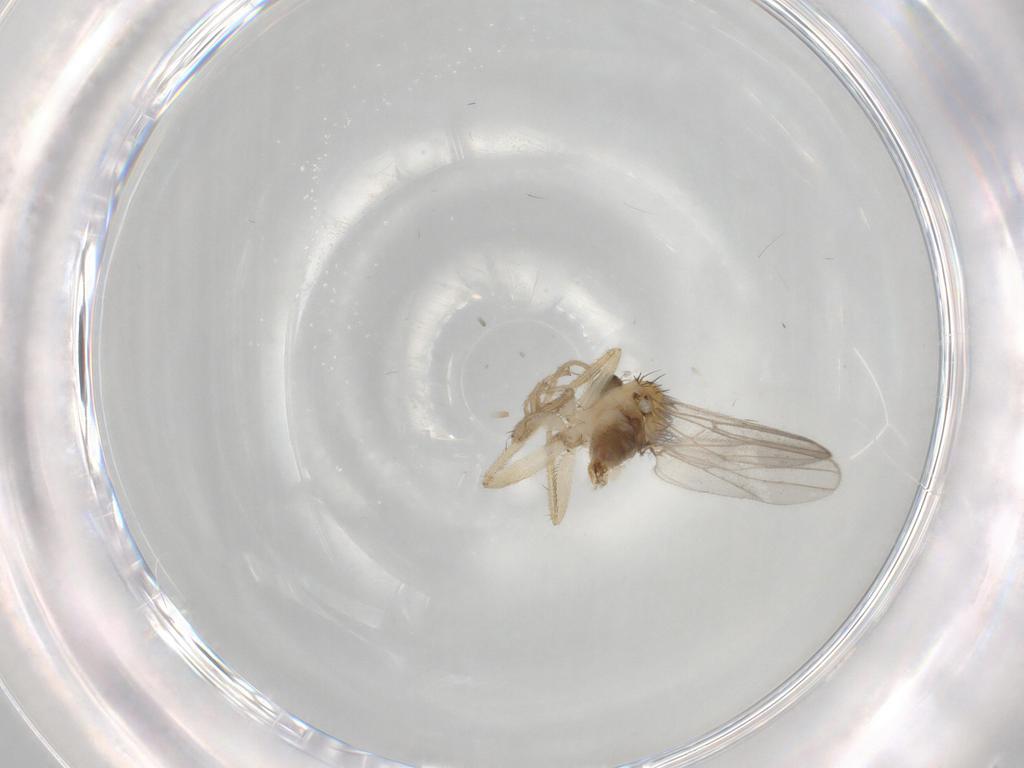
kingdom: Animalia
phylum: Arthropoda
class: Insecta
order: Diptera
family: Hybotidae
